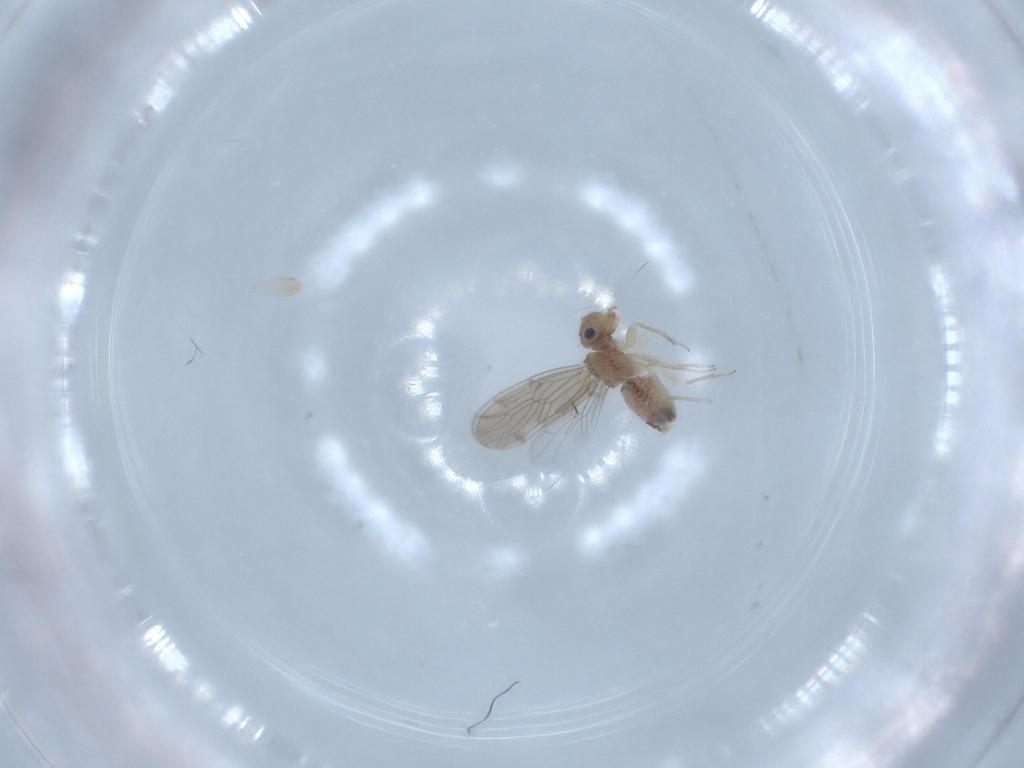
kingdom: Animalia
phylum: Arthropoda
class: Insecta
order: Psocodea
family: Ectopsocidae
